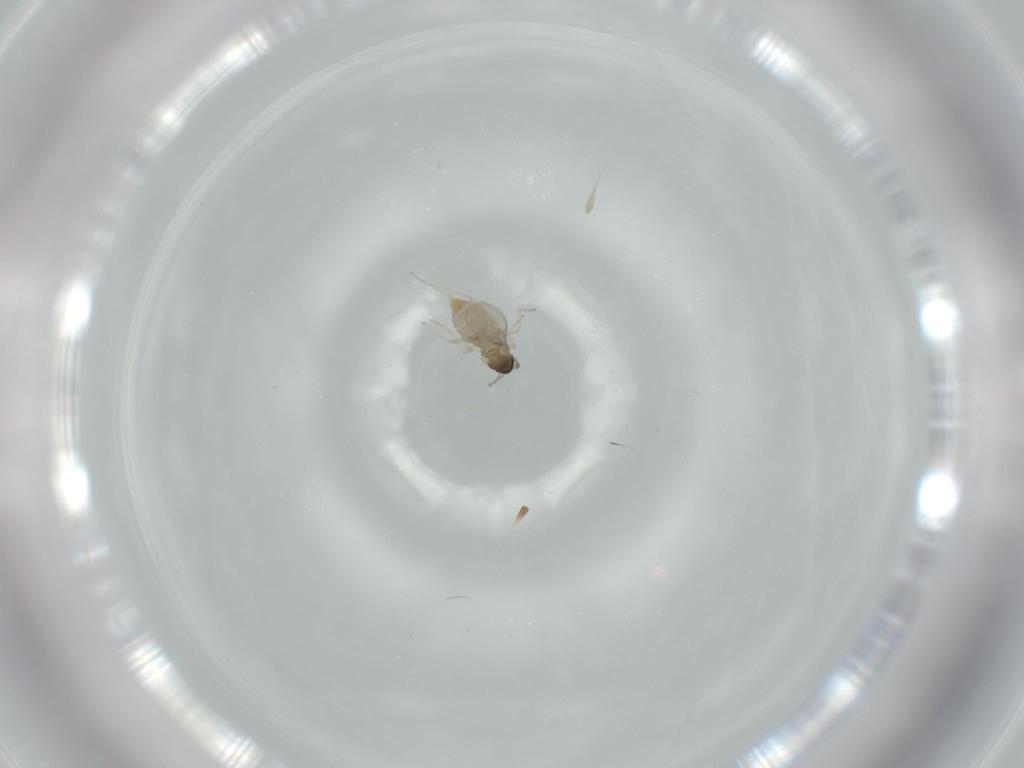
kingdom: Animalia
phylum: Arthropoda
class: Insecta
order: Diptera
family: Cecidomyiidae
